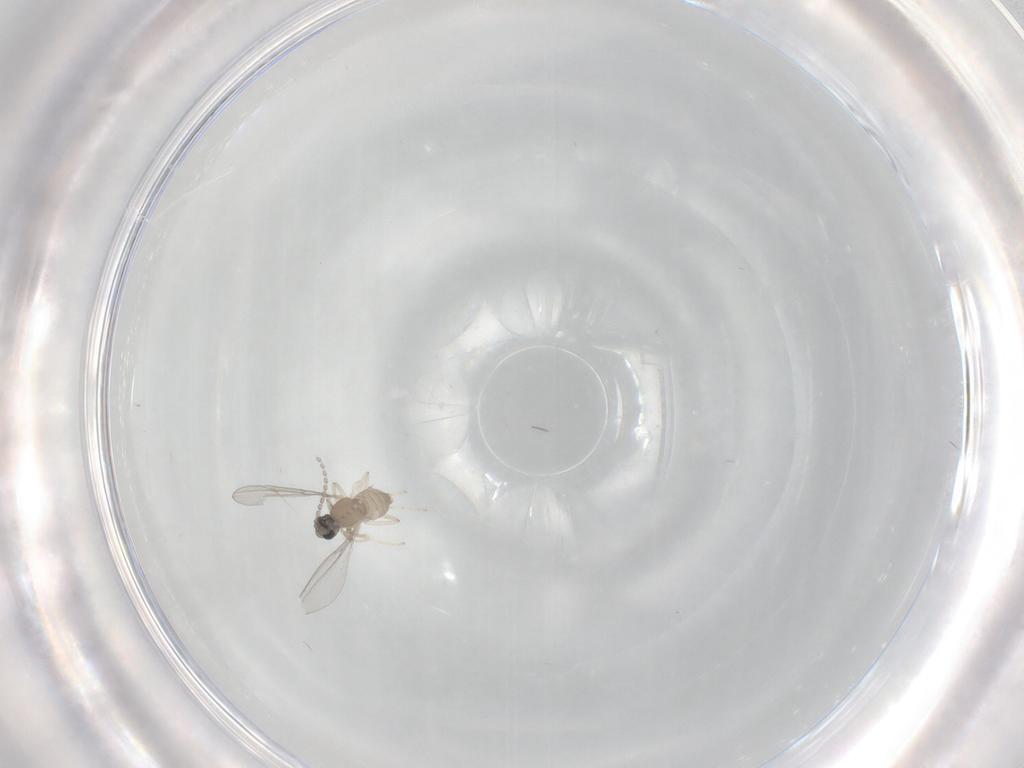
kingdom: Animalia
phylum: Arthropoda
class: Insecta
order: Diptera
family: Cecidomyiidae
